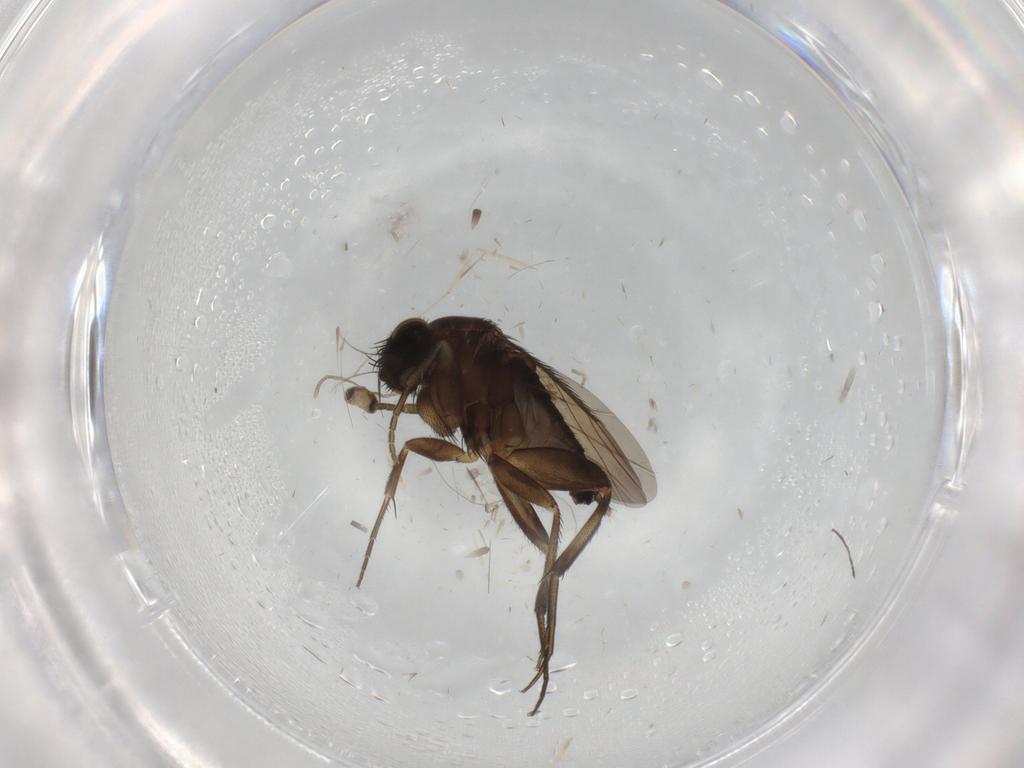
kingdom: Animalia
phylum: Arthropoda
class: Insecta
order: Diptera
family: Phoridae
